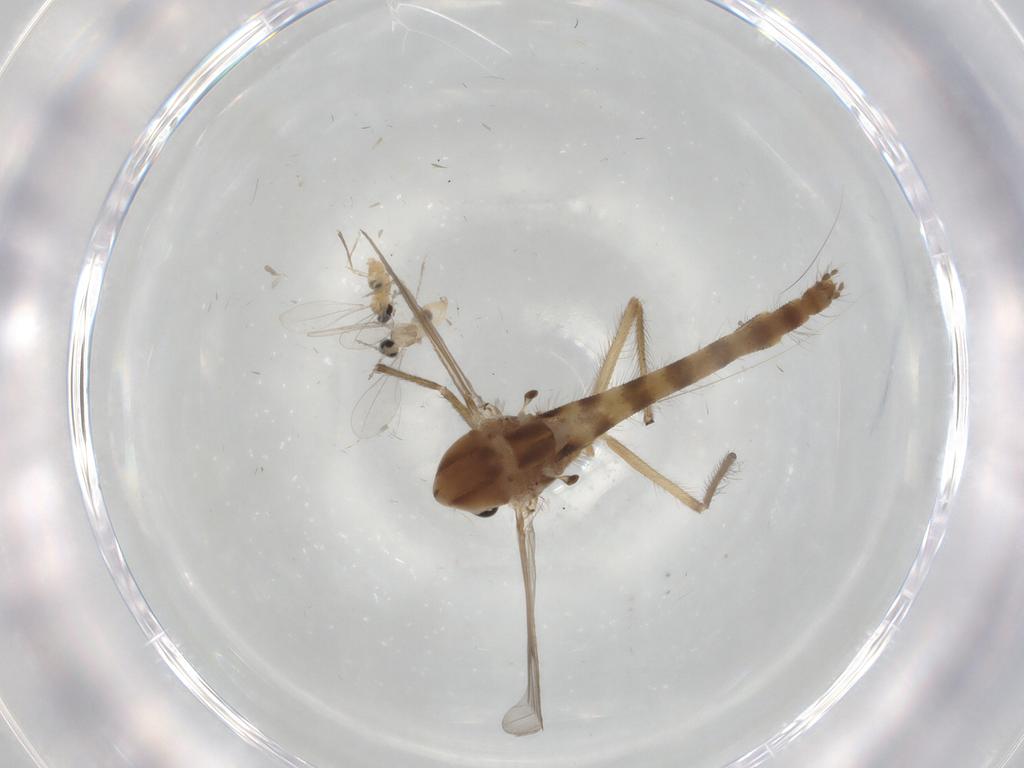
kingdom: Animalia
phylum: Arthropoda
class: Insecta
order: Diptera
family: Chironomidae
